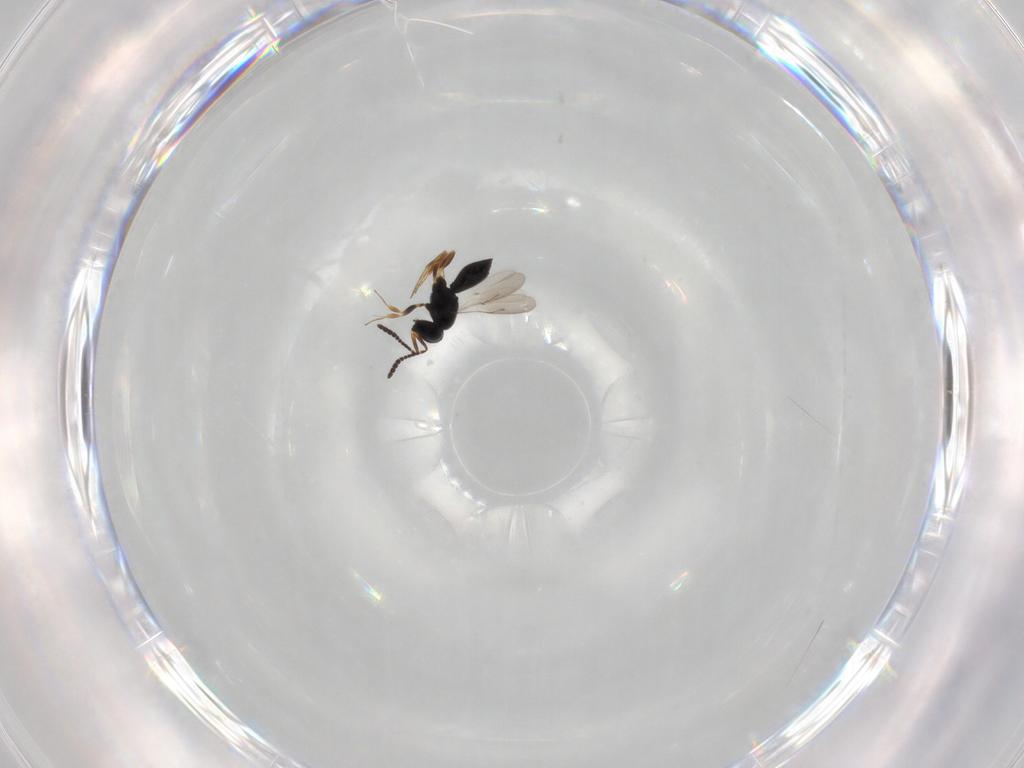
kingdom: Animalia
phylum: Arthropoda
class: Insecta
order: Hymenoptera
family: Scelionidae
